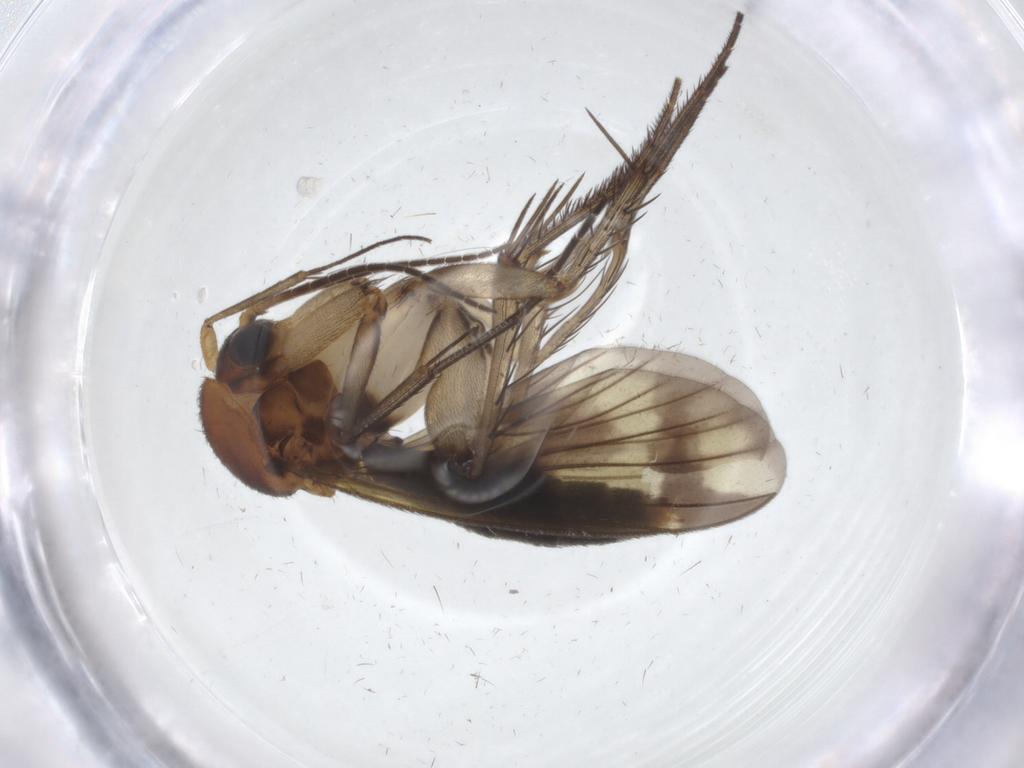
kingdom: Animalia
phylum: Arthropoda
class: Insecta
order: Diptera
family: Mycetophilidae
